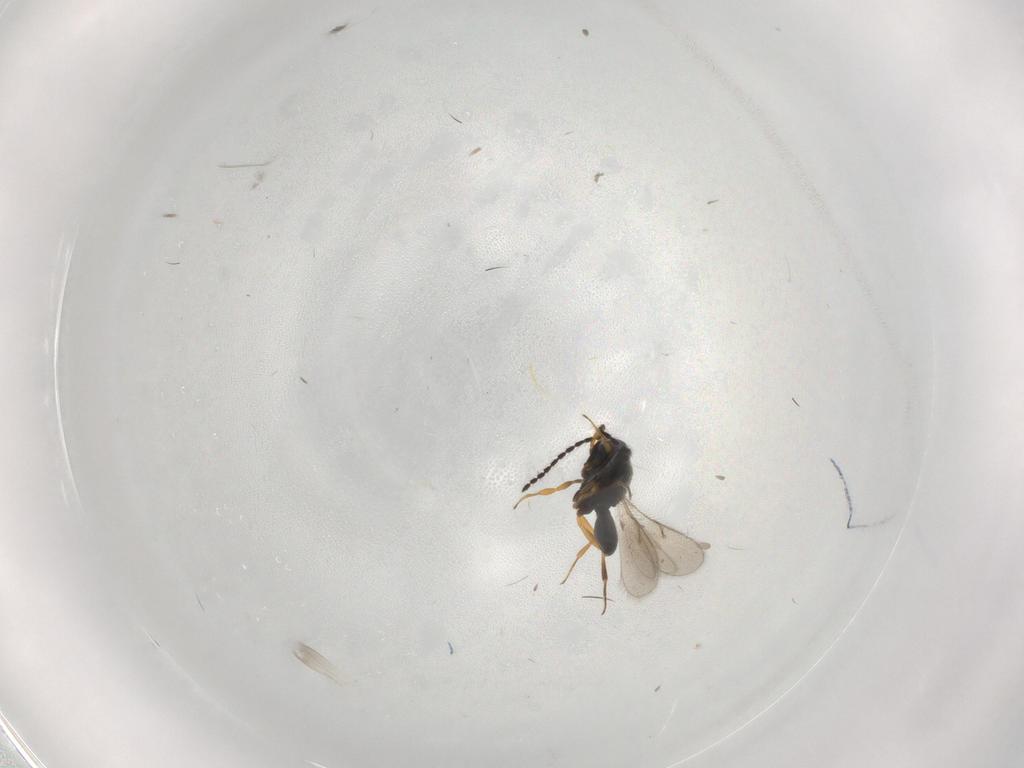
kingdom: Animalia
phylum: Arthropoda
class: Insecta
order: Hymenoptera
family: Scelionidae
